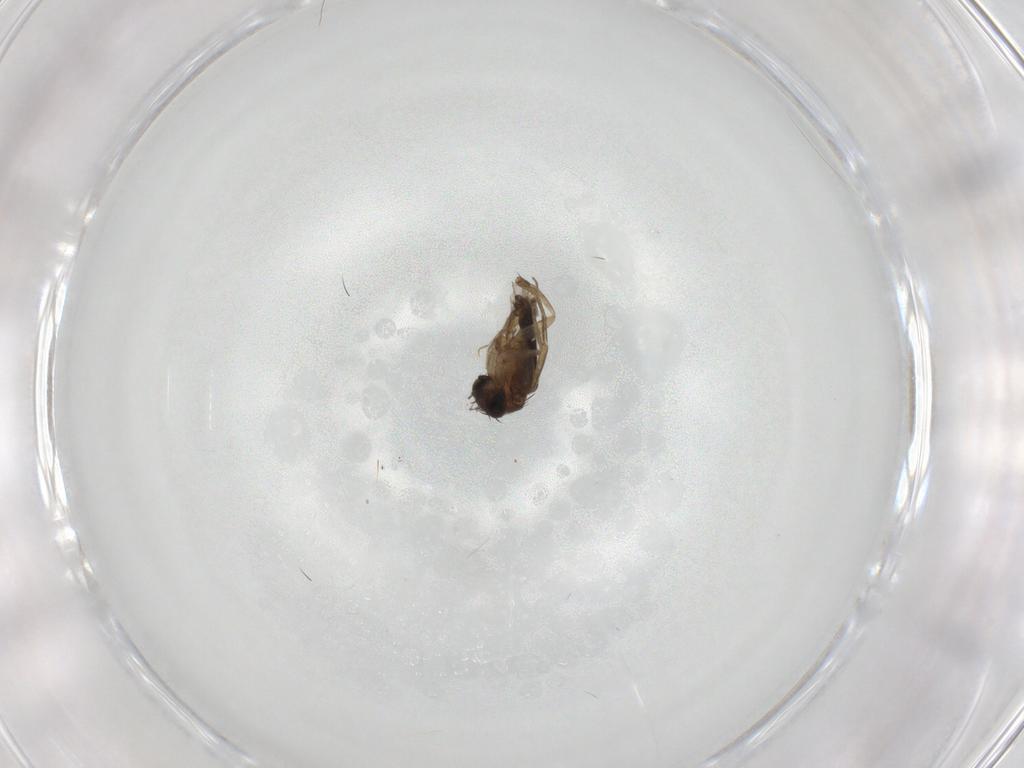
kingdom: Animalia
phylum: Arthropoda
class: Insecta
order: Diptera
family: Phoridae
